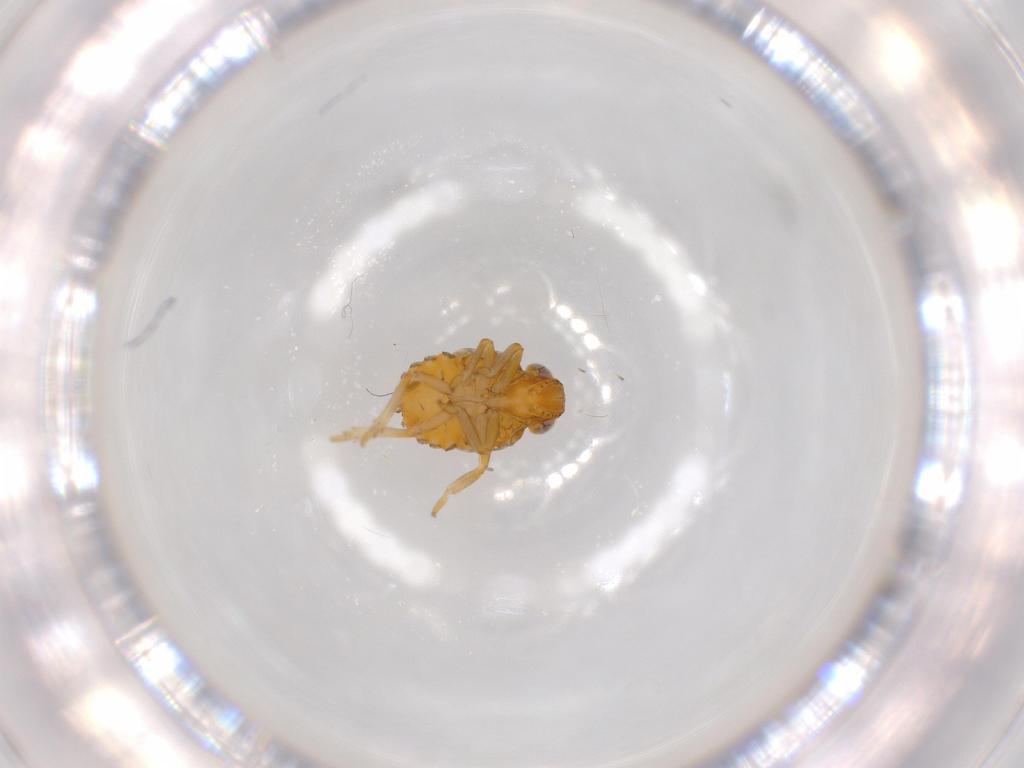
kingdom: Animalia
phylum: Arthropoda
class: Insecta
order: Hemiptera
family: Issidae
